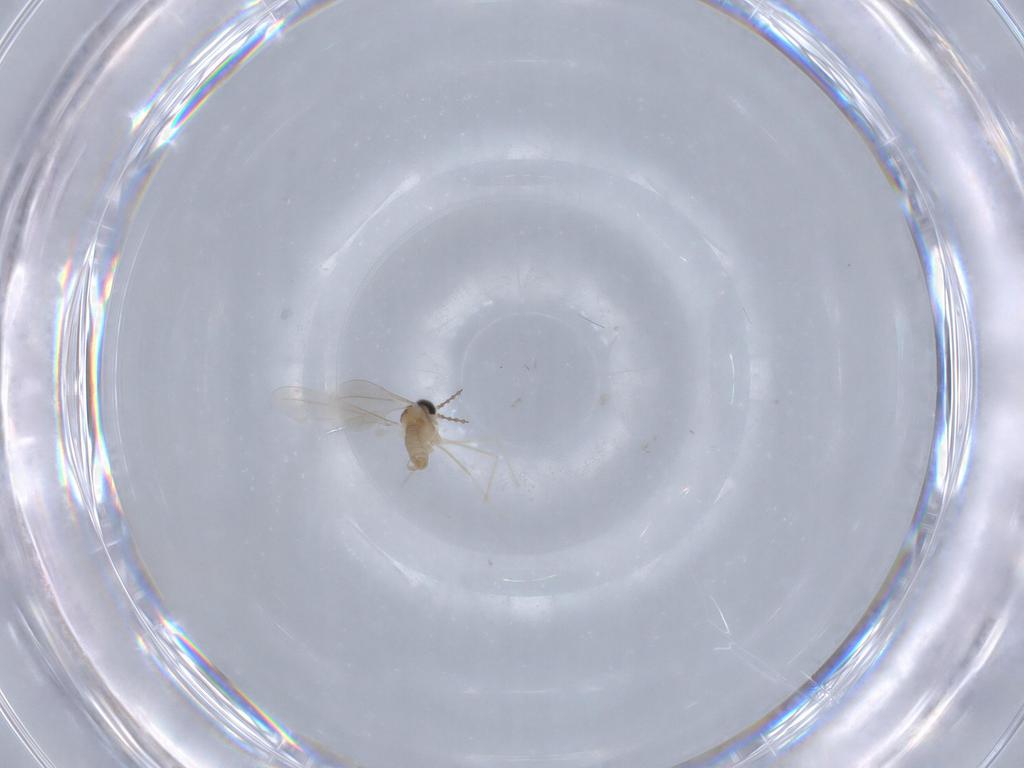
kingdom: Animalia
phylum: Arthropoda
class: Insecta
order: Diptera
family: Cecidomyiidae
